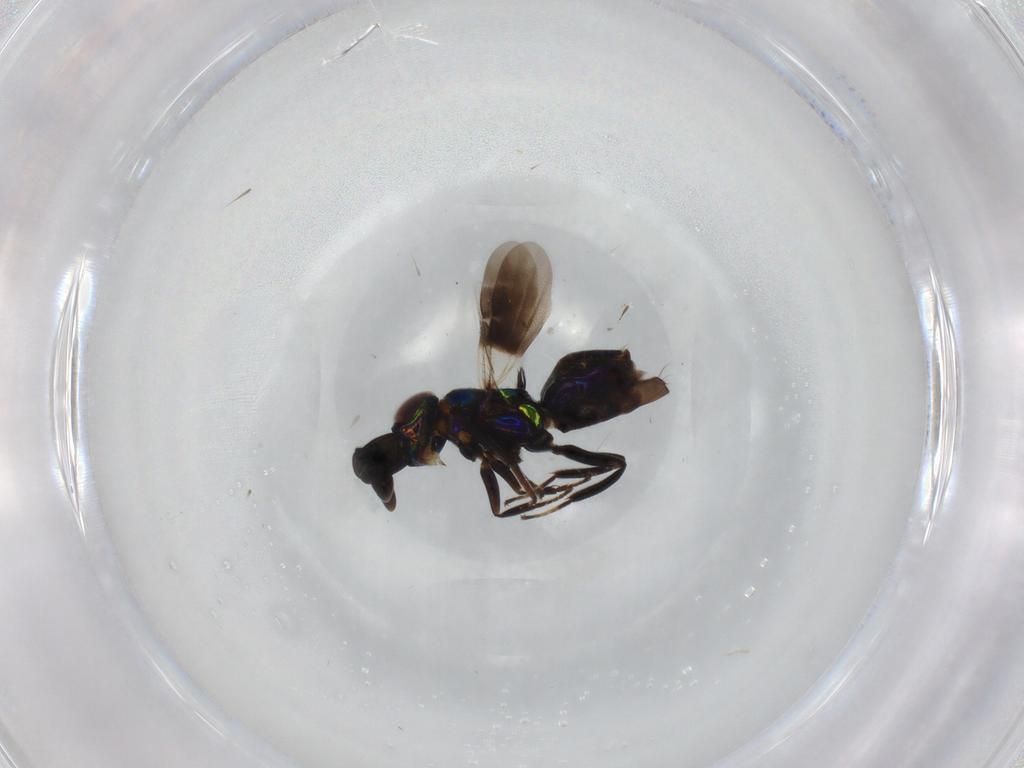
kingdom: Animalia
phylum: Arthropoda
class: Insecta
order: Hymenoptera
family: Encyrtidae
